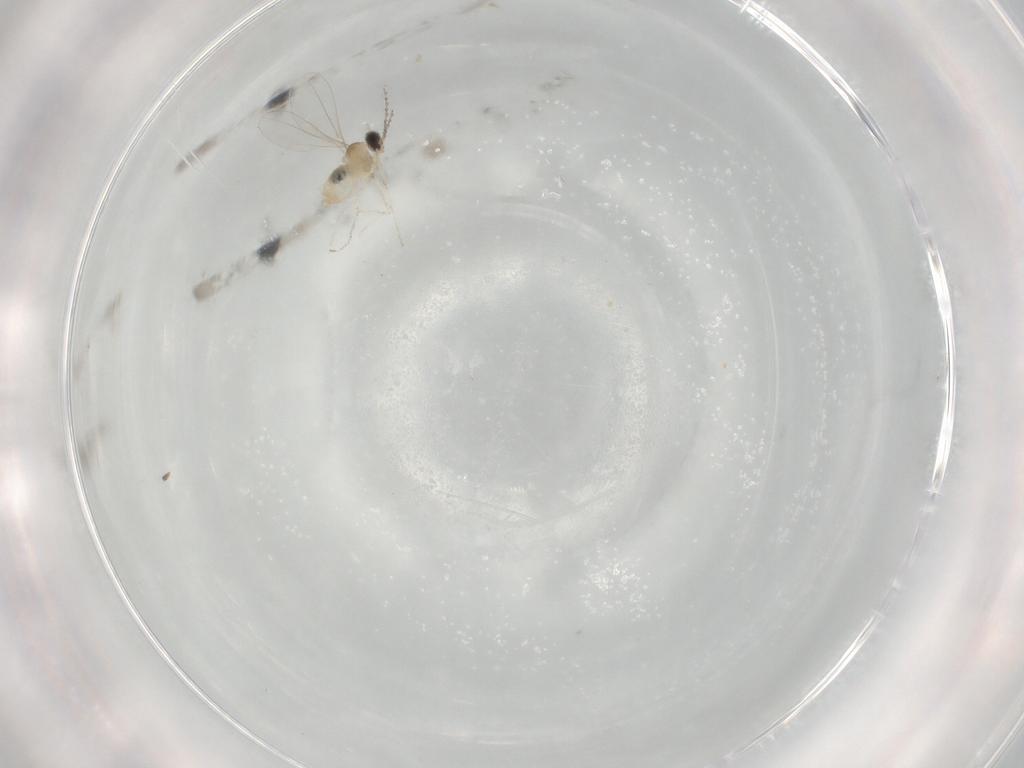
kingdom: Animalia
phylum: Arthropoda
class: Insecta
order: Diptera
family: Cecidomyiidae
